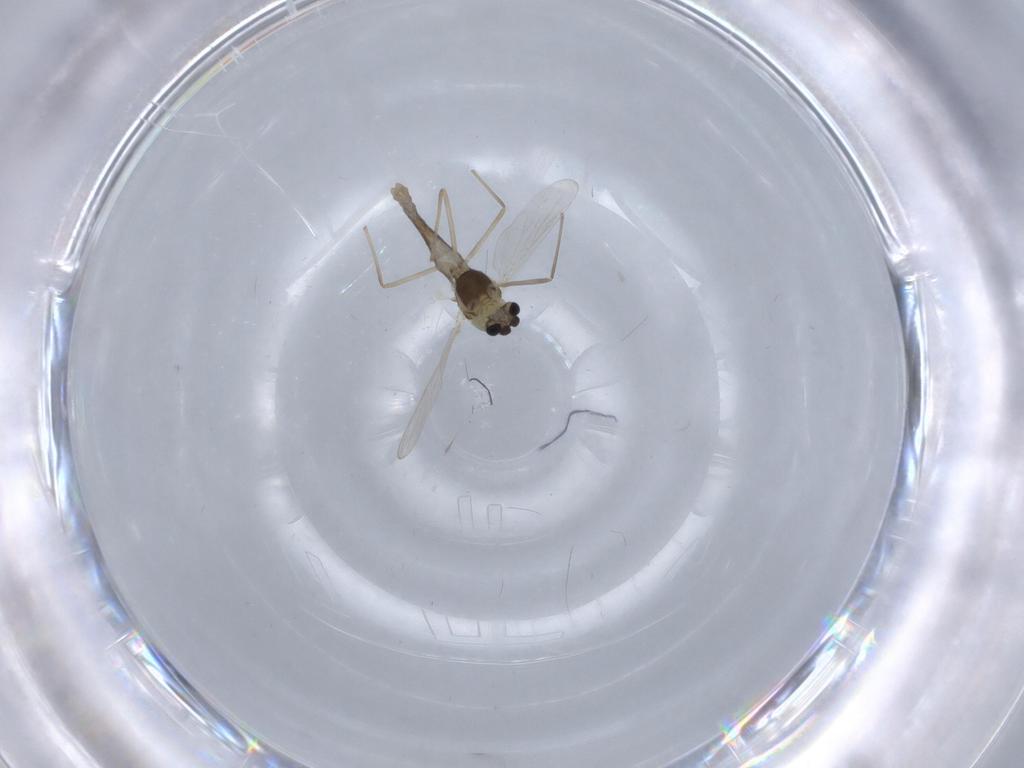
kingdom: Animalia
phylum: Arthropoda
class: Insecta
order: Diptera
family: Chironomidae
